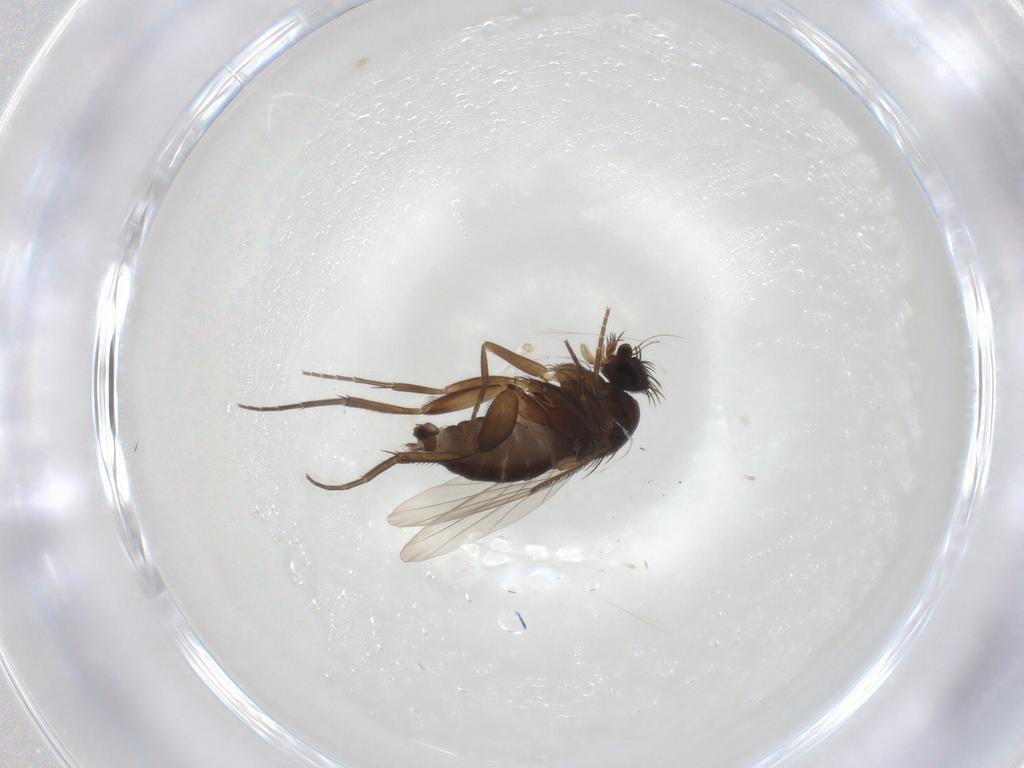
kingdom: Animalia
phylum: Arthropoda
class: Insecta
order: Diptera
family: Phoridae
